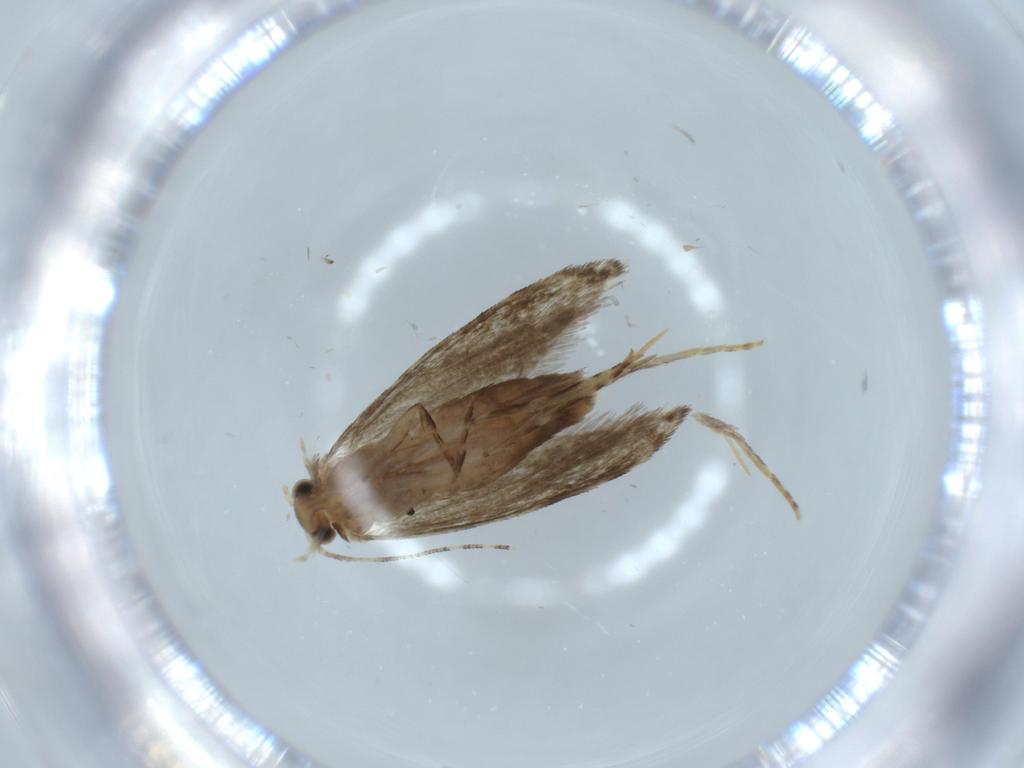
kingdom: Animalia
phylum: Arthropoda
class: Insecta
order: Lepidoptera
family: Tineidae
